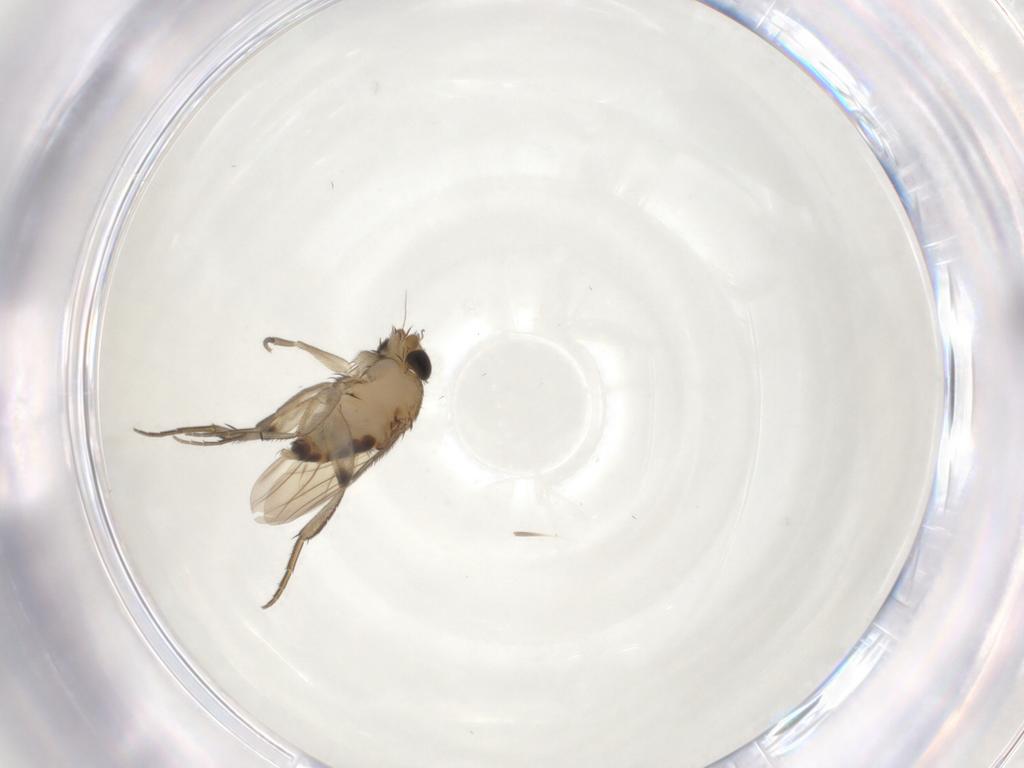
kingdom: Animalia
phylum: Arthropoda
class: Insecta
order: Diptera
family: Phoridae
